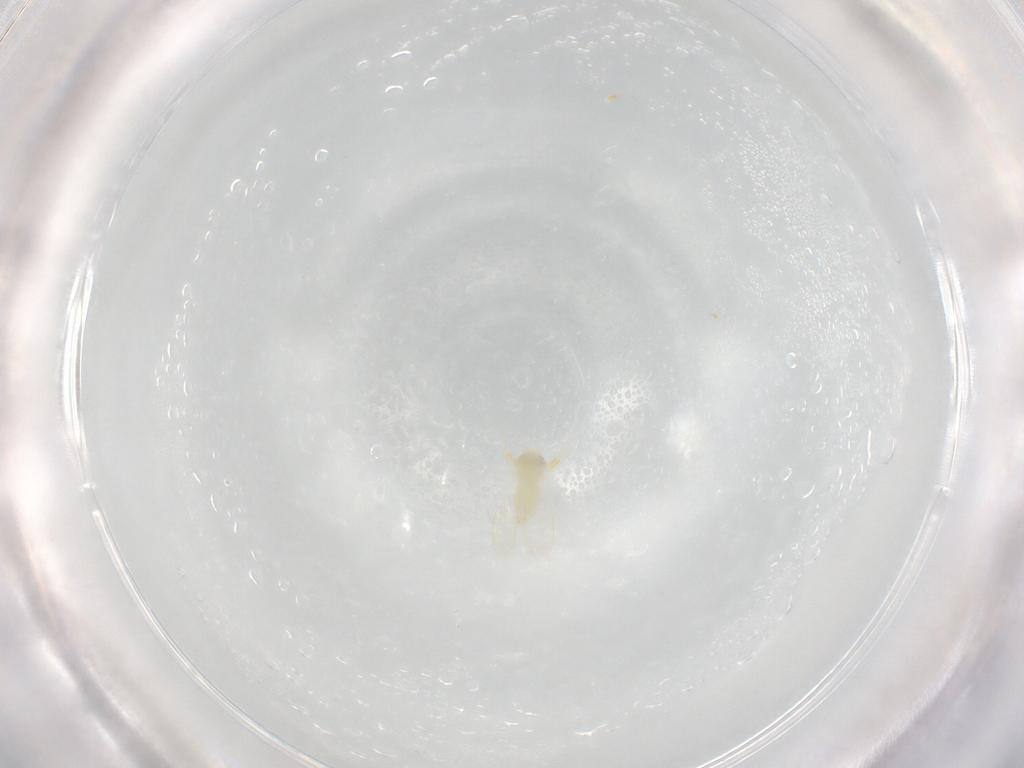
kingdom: Animalia
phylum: Arthropoda
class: Insecta
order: Hemiptera
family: Aleyrodidae
